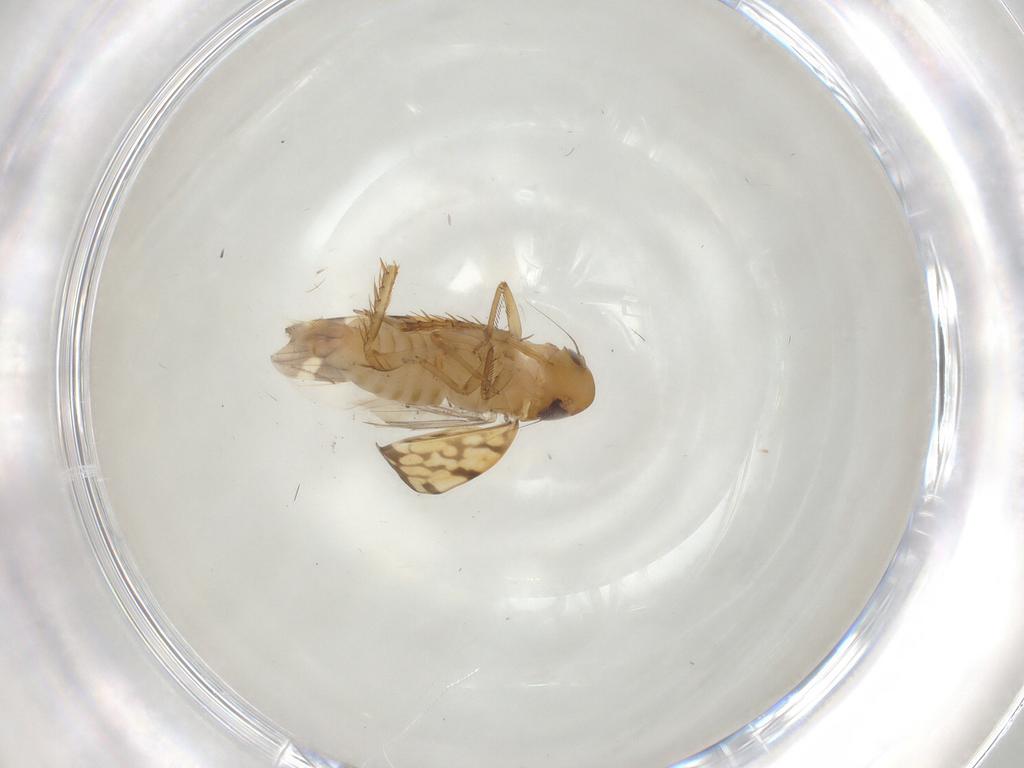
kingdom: Animalia
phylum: Arthropoda
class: Insecta
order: Hemiptera
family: Cicadellidae
